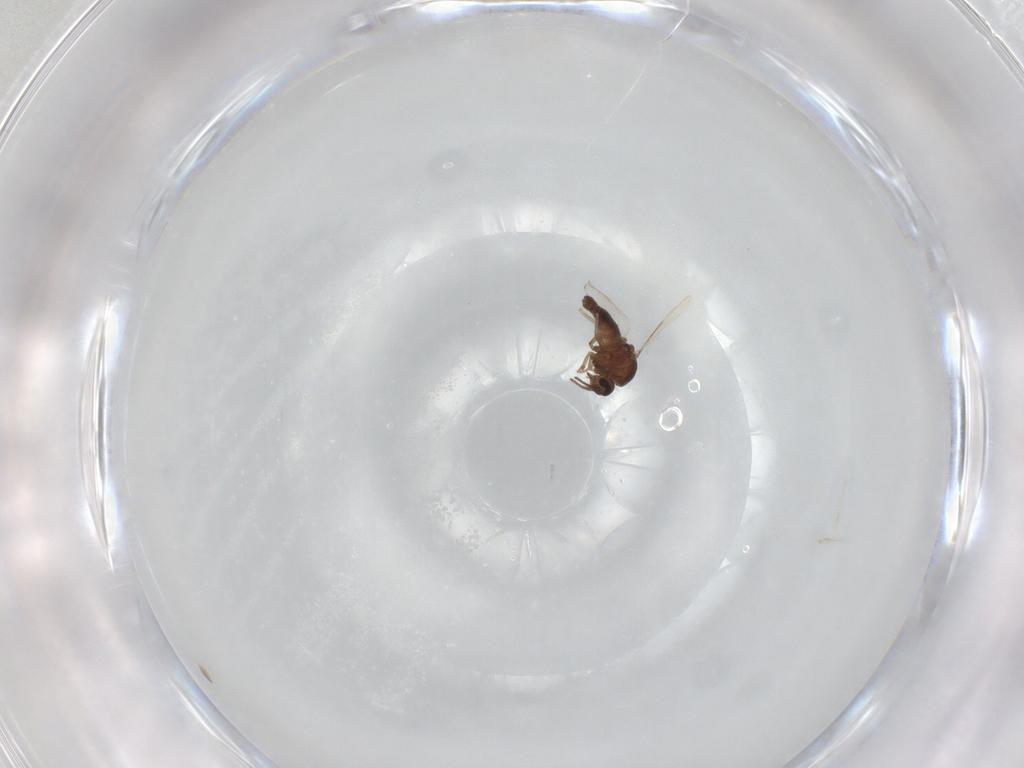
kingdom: Animalia
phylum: Arthropoda
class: Insecta
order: Diptera
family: Ceratopogonidae
